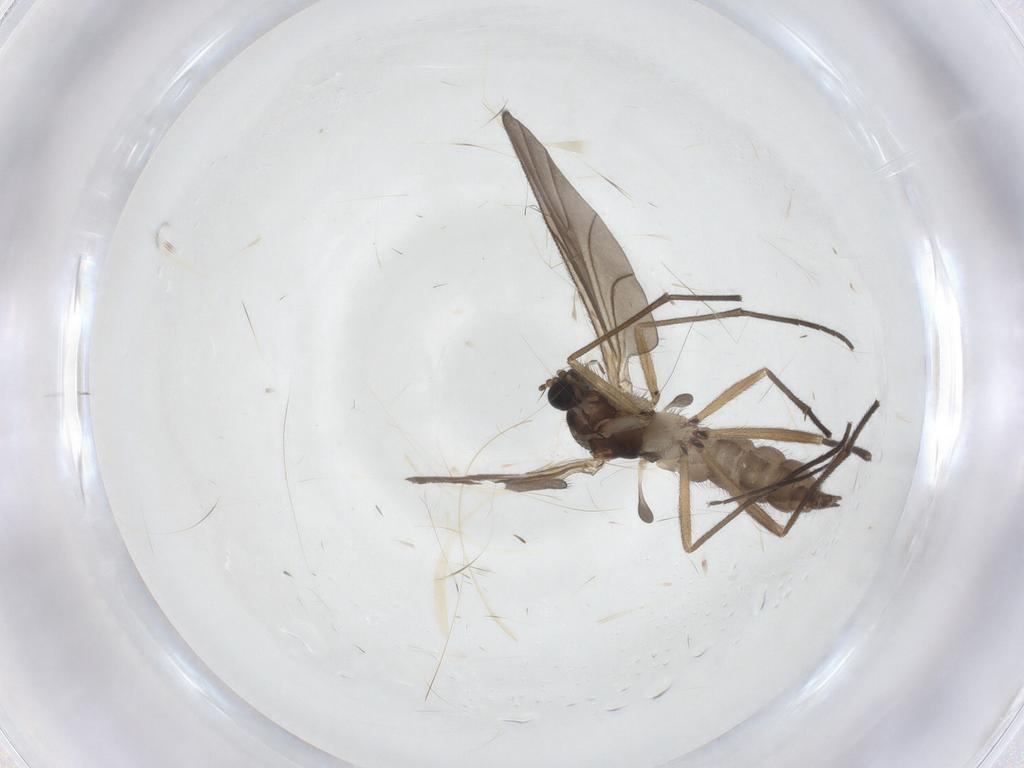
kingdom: Animalia
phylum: Arthropoda
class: Insecta
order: Diptera
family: Sciaridae
